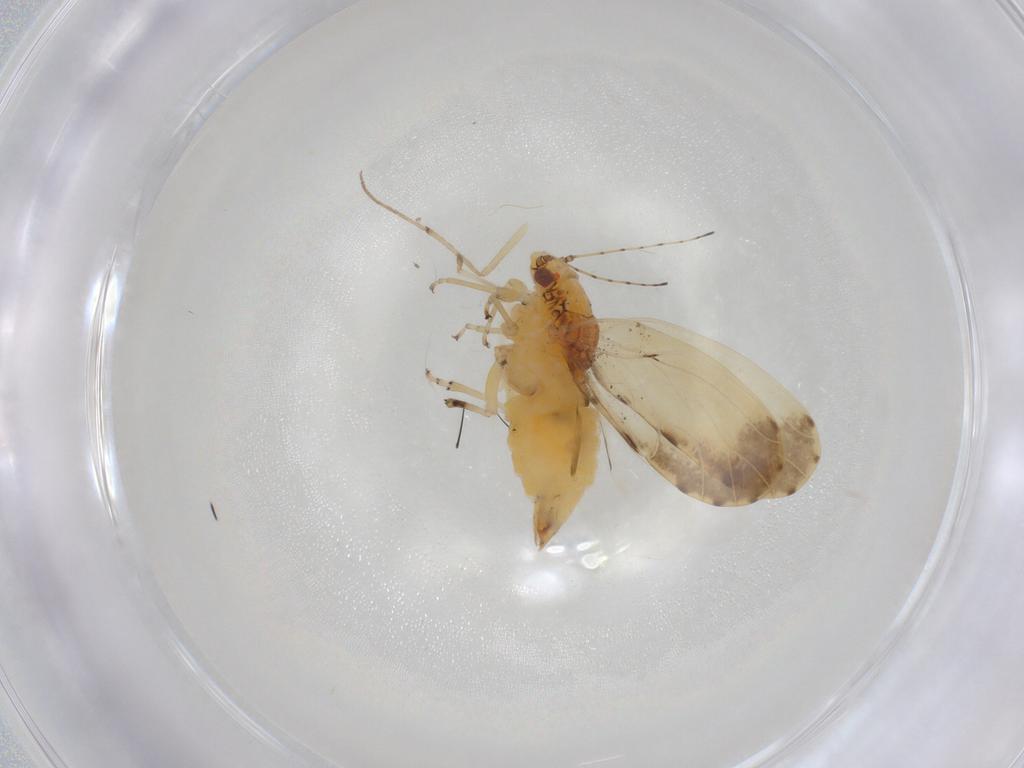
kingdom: Animalia
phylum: Arthropoda
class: Insecta
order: Hemiptera
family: Tingidae
